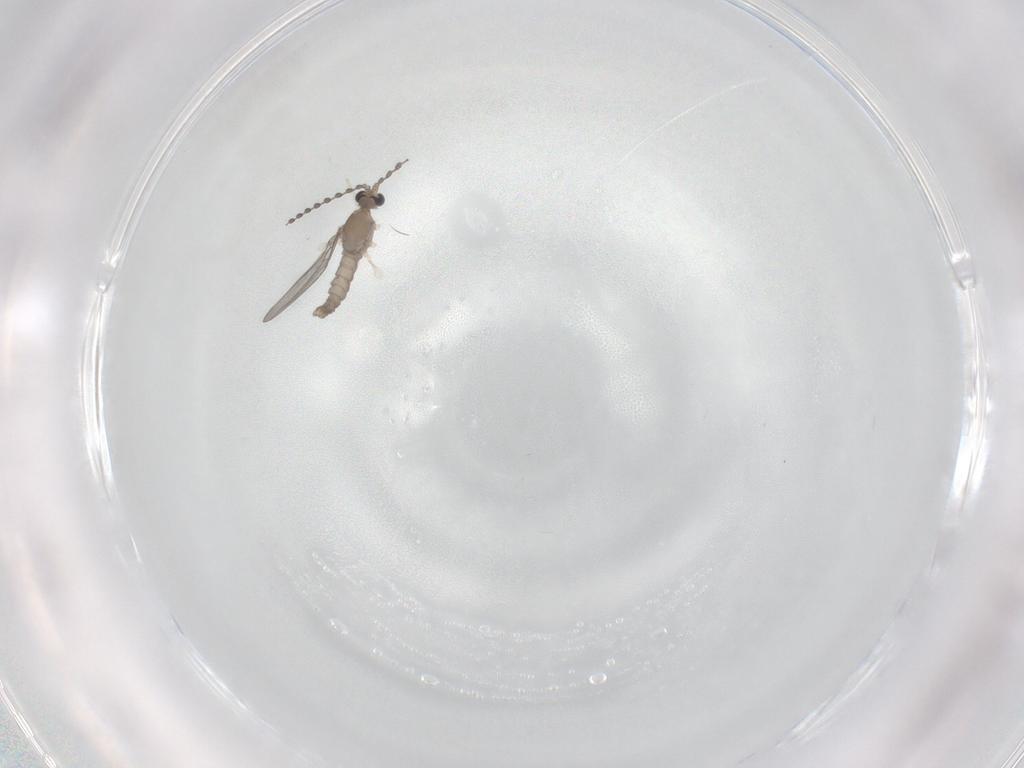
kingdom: Animalia
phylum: Arthropoda
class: Insecta
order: Diptera
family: Cecidomyiidae
